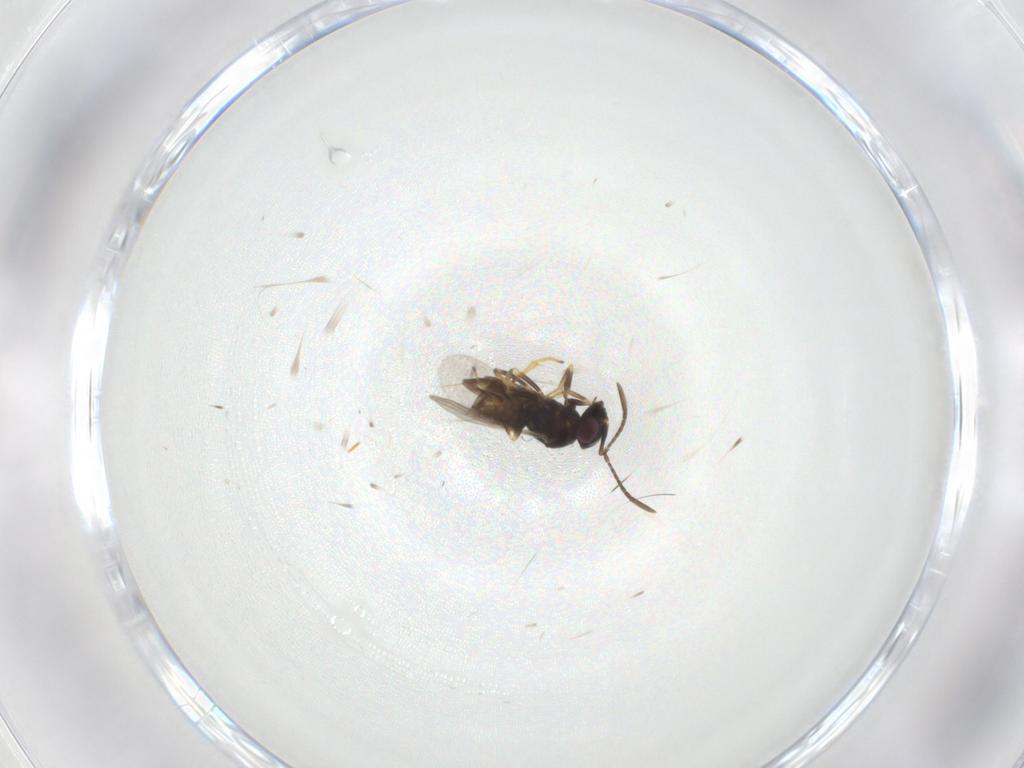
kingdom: Animalia
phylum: Arthropoda
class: Insecta
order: Hymenoptera
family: Encyrtidae
